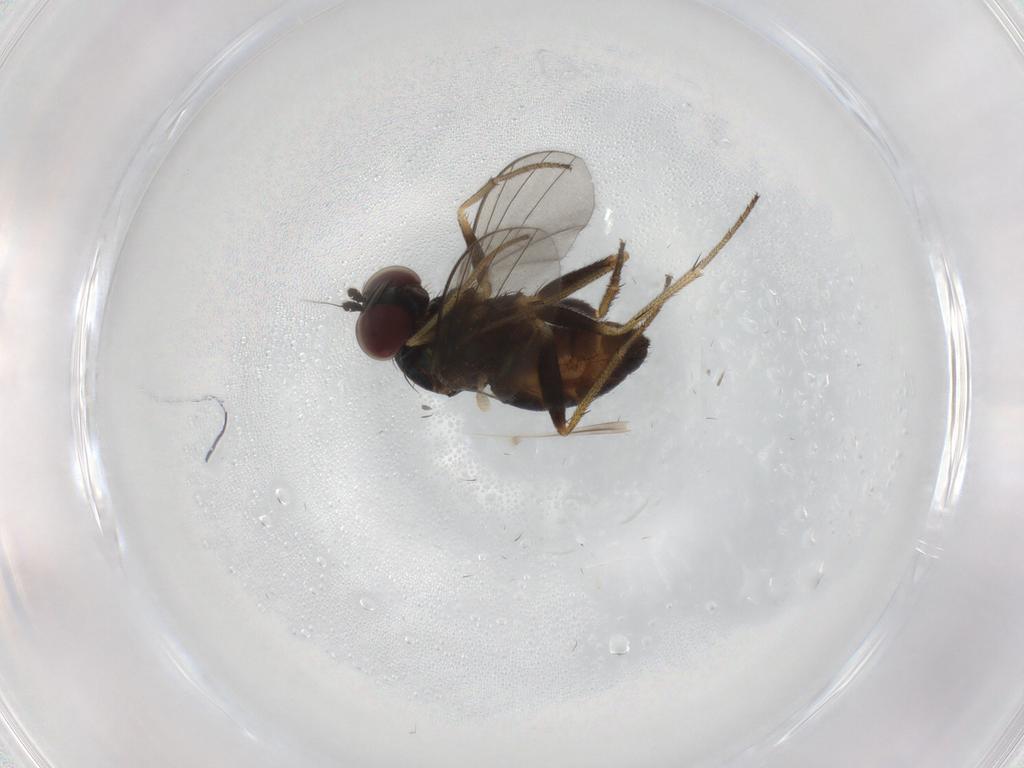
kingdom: Animalia
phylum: Arthropoda
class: Insecta
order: Diptera
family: Dolichopodidae
